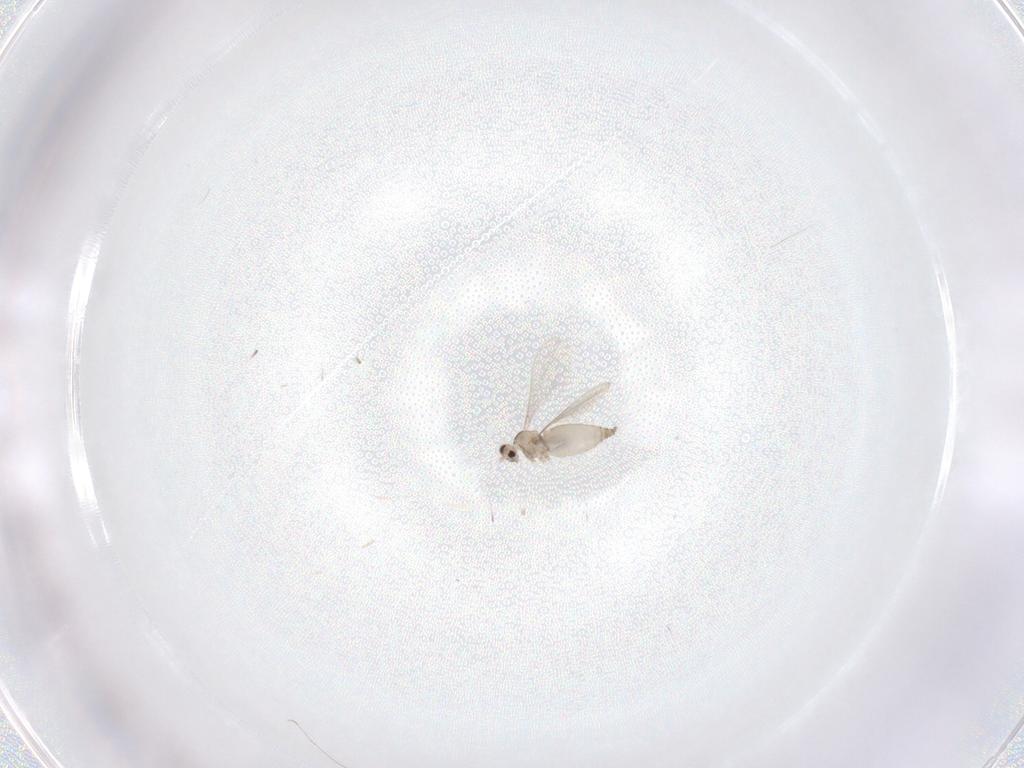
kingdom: Animalia
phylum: Arthropoda
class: Insecta
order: Diptera
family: Cecidomyiidae
